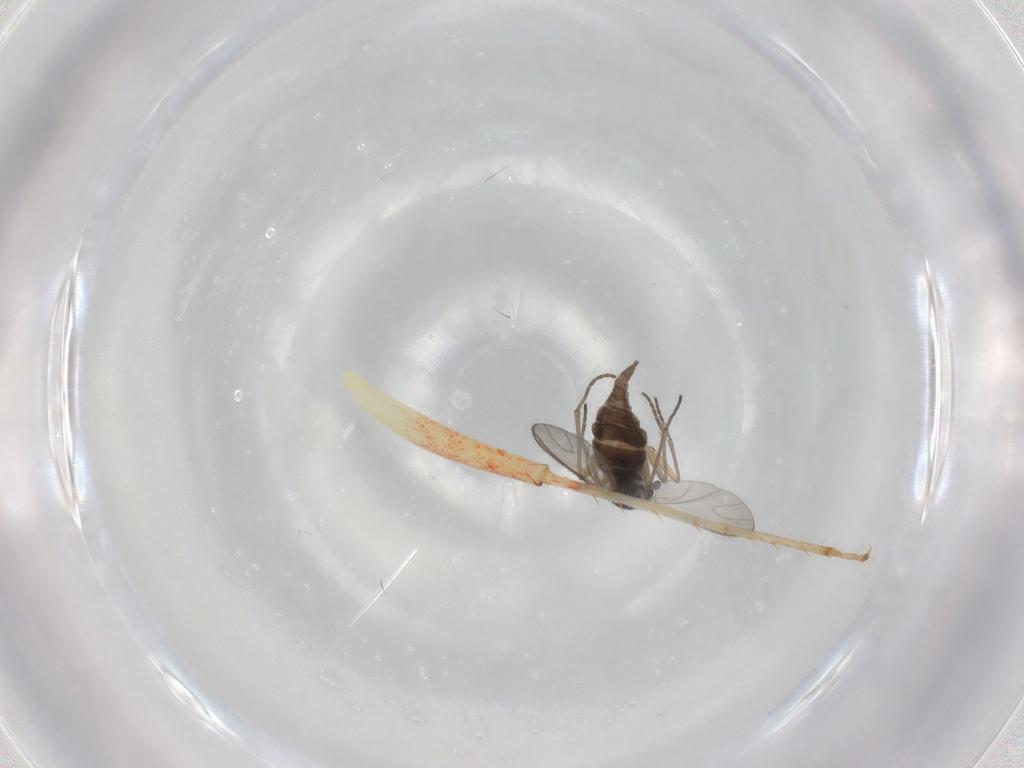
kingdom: Animalia
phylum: Arthropoda
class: Insecta
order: Diptera
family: Sciaridae
